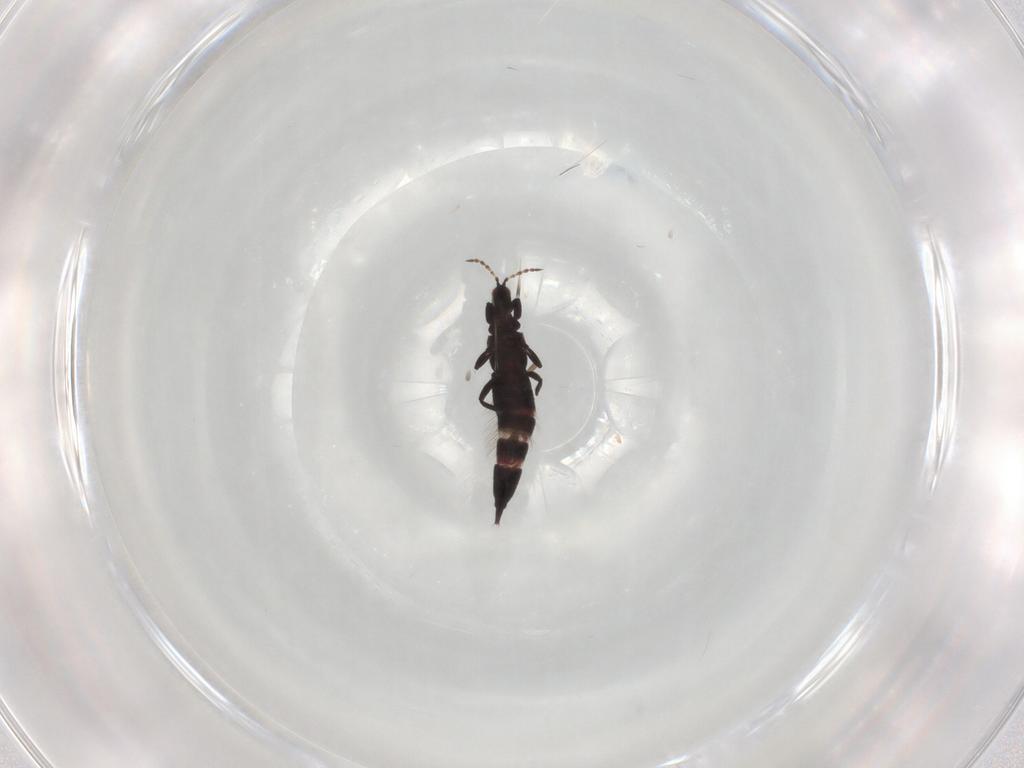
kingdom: Animalia
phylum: Arthropoda
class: Insecta
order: Thysanoptera
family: Phlaeothripidae
